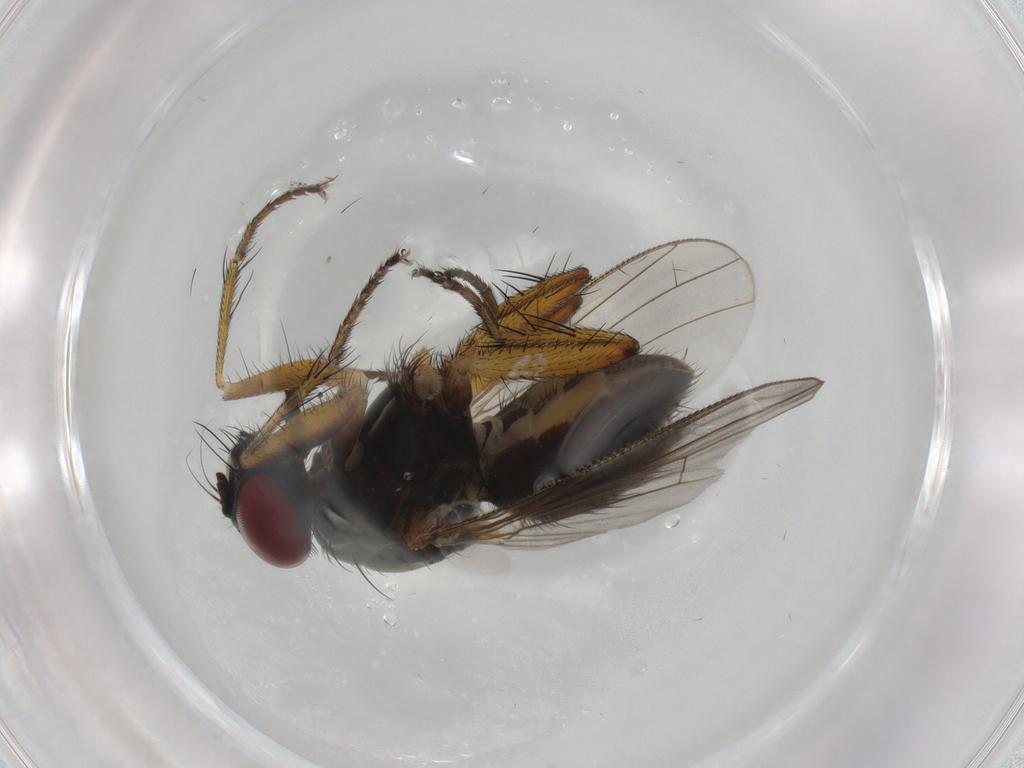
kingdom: Animalia
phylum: Arthropoda
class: Insecta
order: Diptera
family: Muscidae
